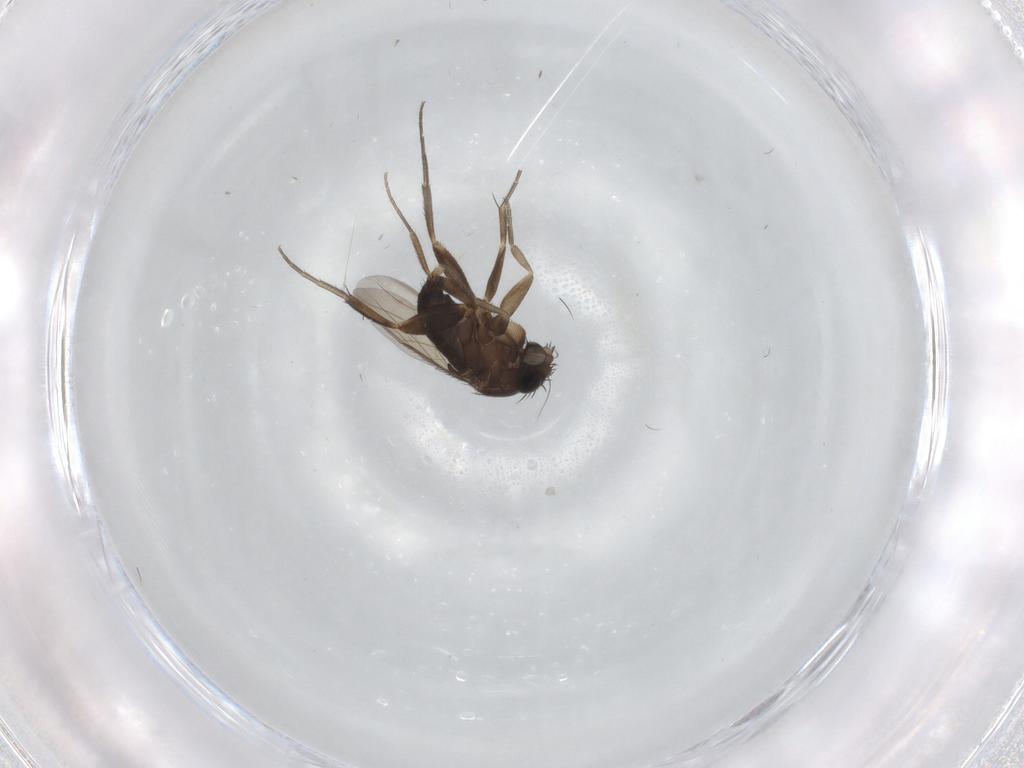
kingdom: Animalia
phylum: Arthropoda
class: Insecta
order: Diptera
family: Phoridae
